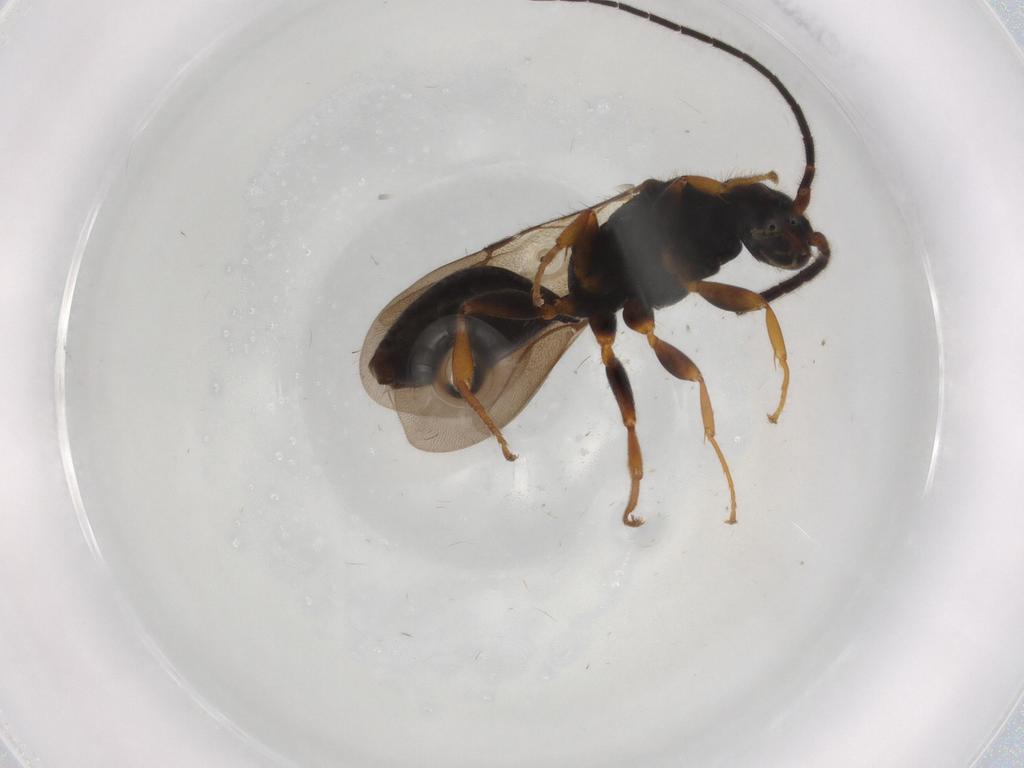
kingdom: Animalia
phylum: Arthropoda
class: Insecta
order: Hymenoptera
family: Bethylidae
